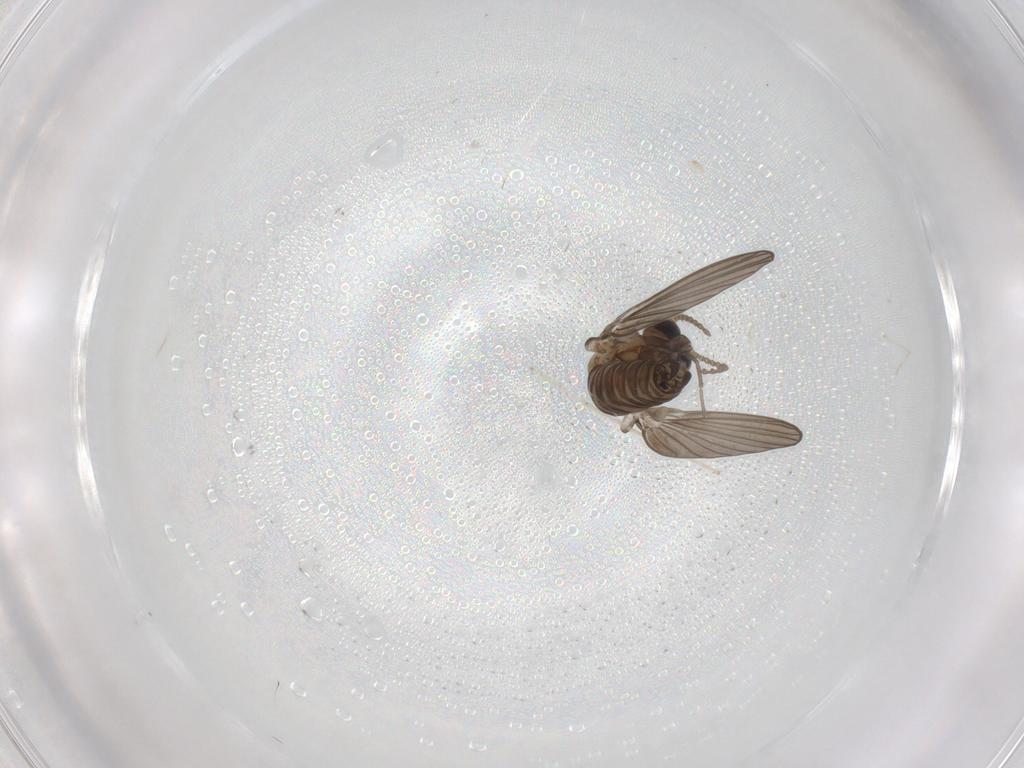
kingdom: Animalia
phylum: Arthropoda
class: Insecta
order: Diptera
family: Psychodidae
